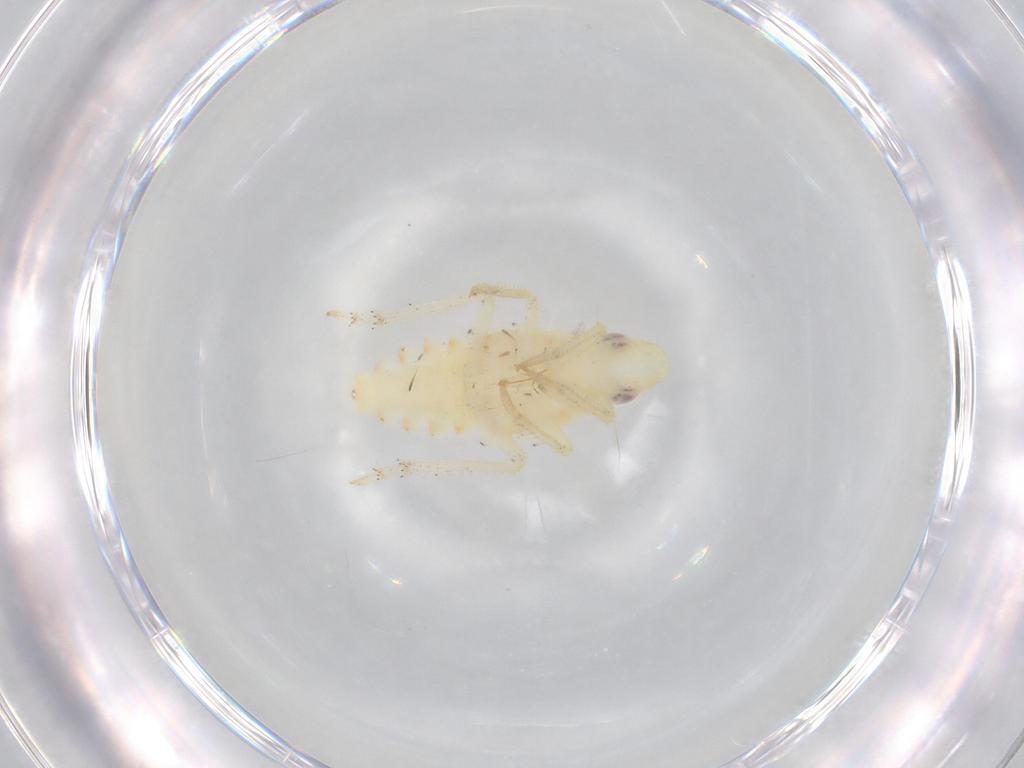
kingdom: Animalia
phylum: Arthropoda
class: Insecta
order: Hemiptera
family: Tropiduchidae
